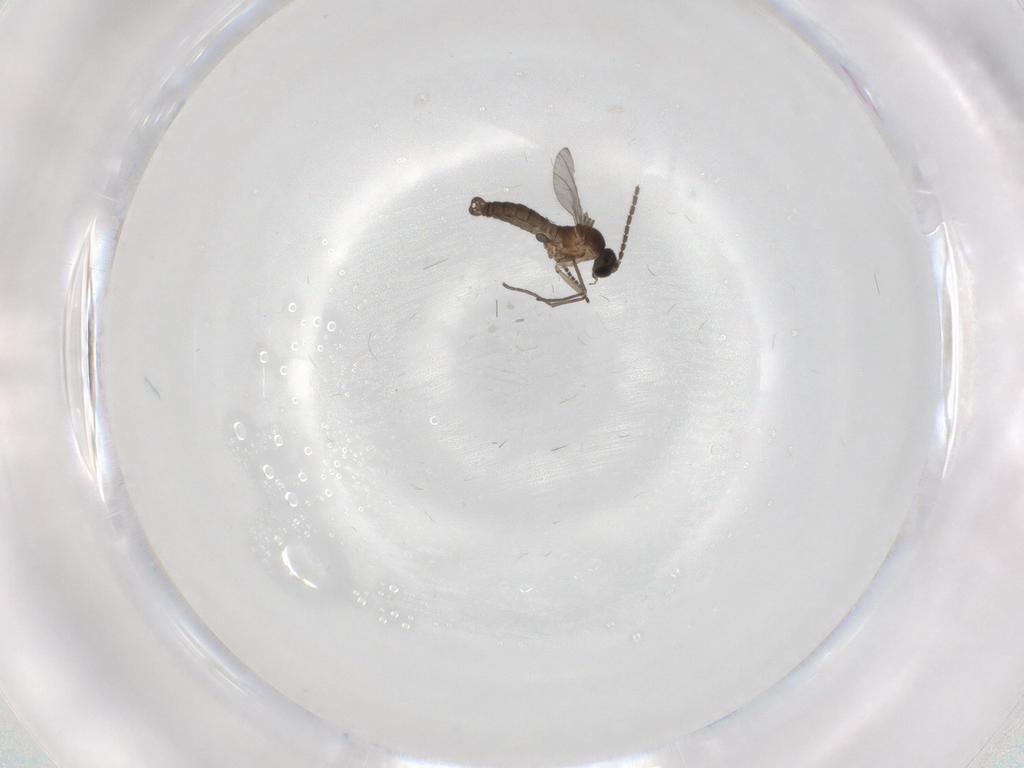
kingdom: Animalia
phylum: Arthropoda
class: Insecta
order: Diptera
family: Sciaridae
